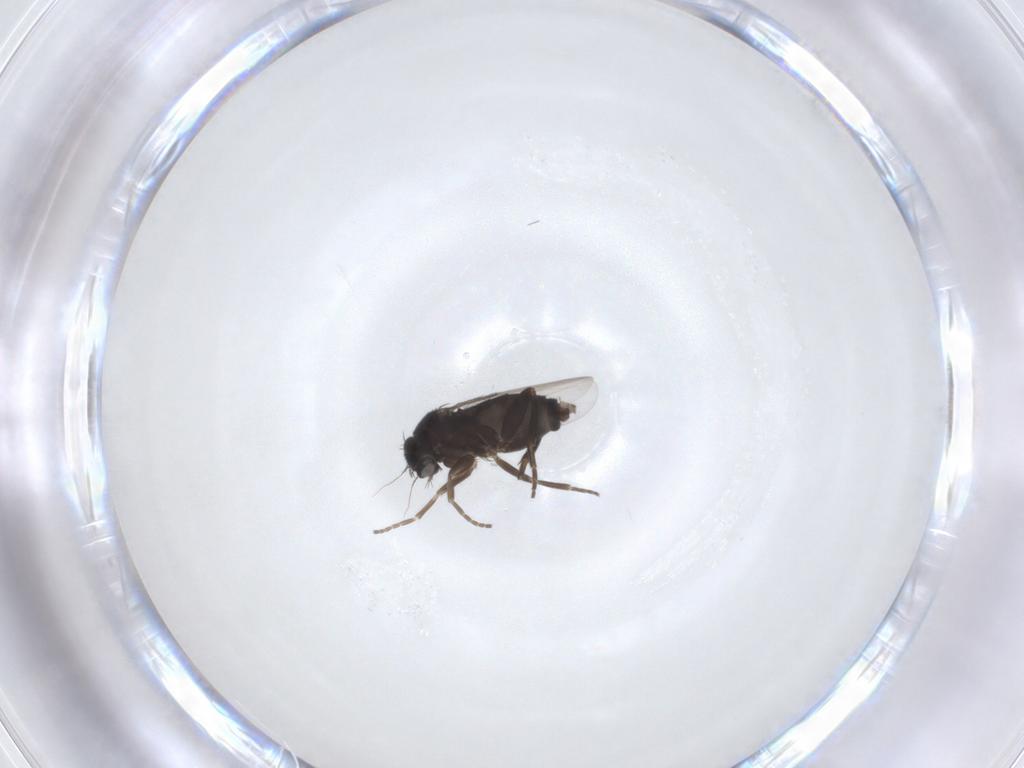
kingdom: Animalia
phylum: Arthropoda
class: Insecta
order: Diptera
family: Phoridae
